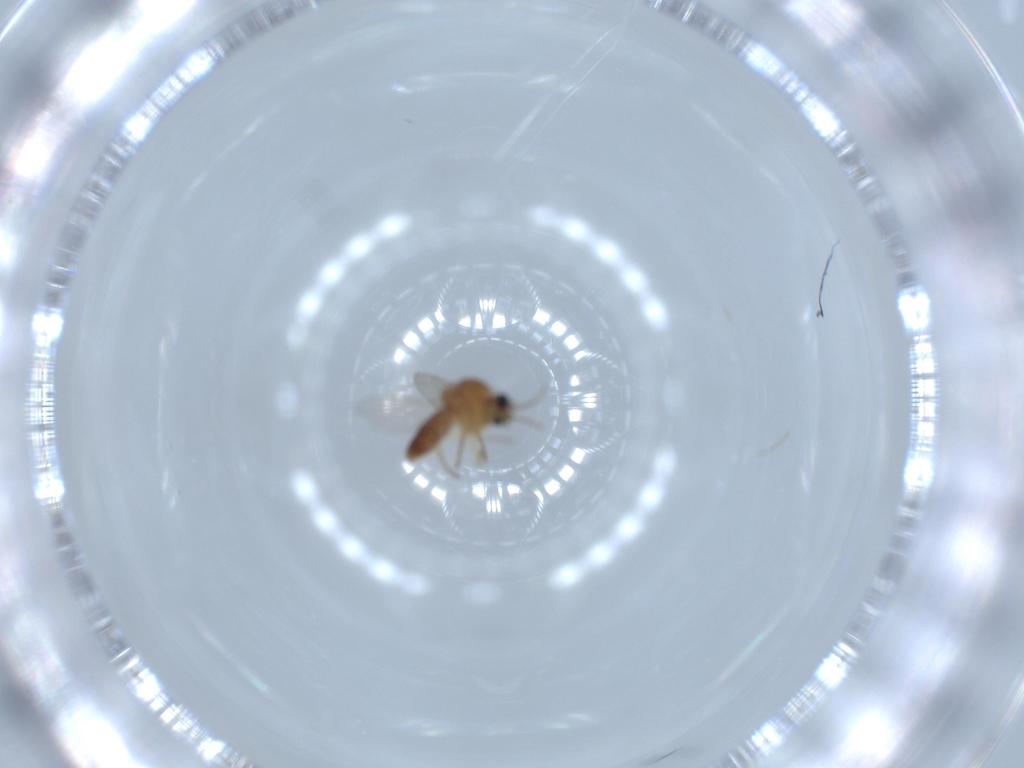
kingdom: Animalia
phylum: Arthropoda
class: Insecta
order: Diptera
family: Ceratopogonidae
